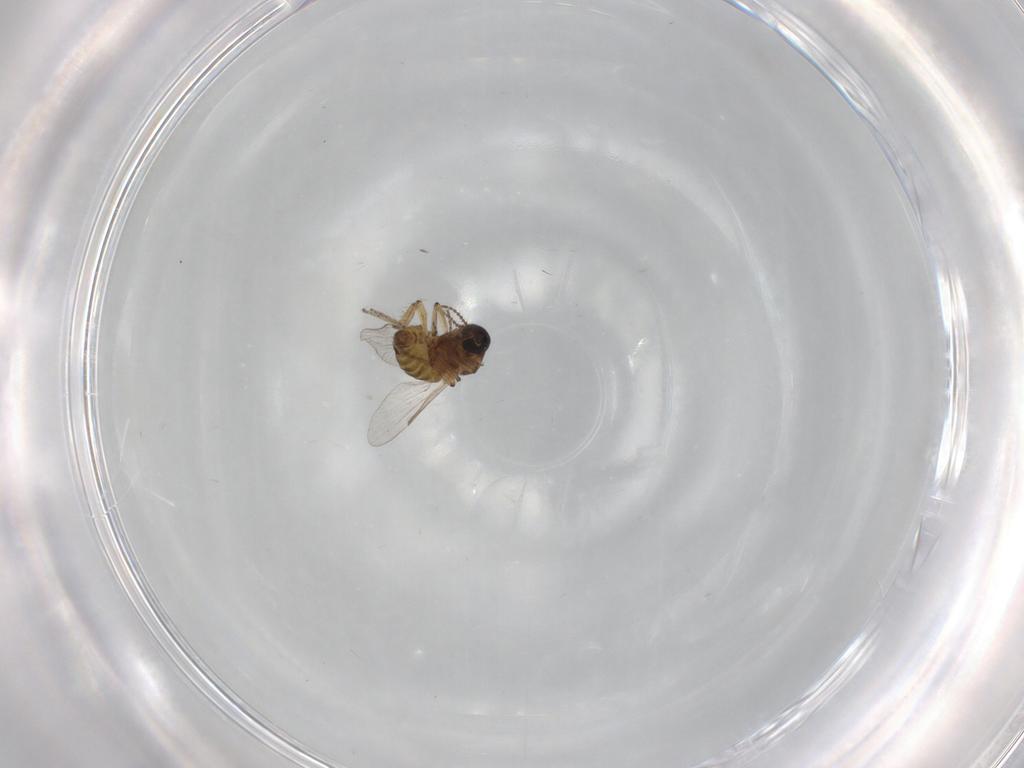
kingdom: Animalia
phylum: Arthropoda
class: Insecta
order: Diptera
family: Ceratopogonidae
